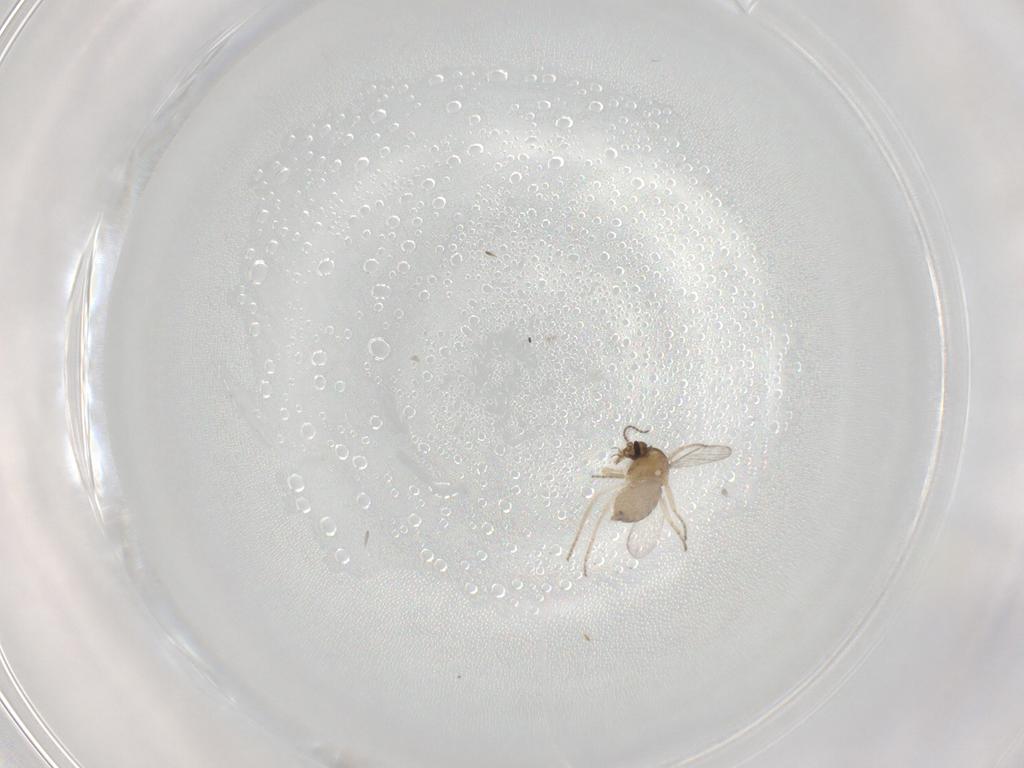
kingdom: Animalia
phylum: Arthropoda
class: Insecta
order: Diptera
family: Ceratopogonidae
